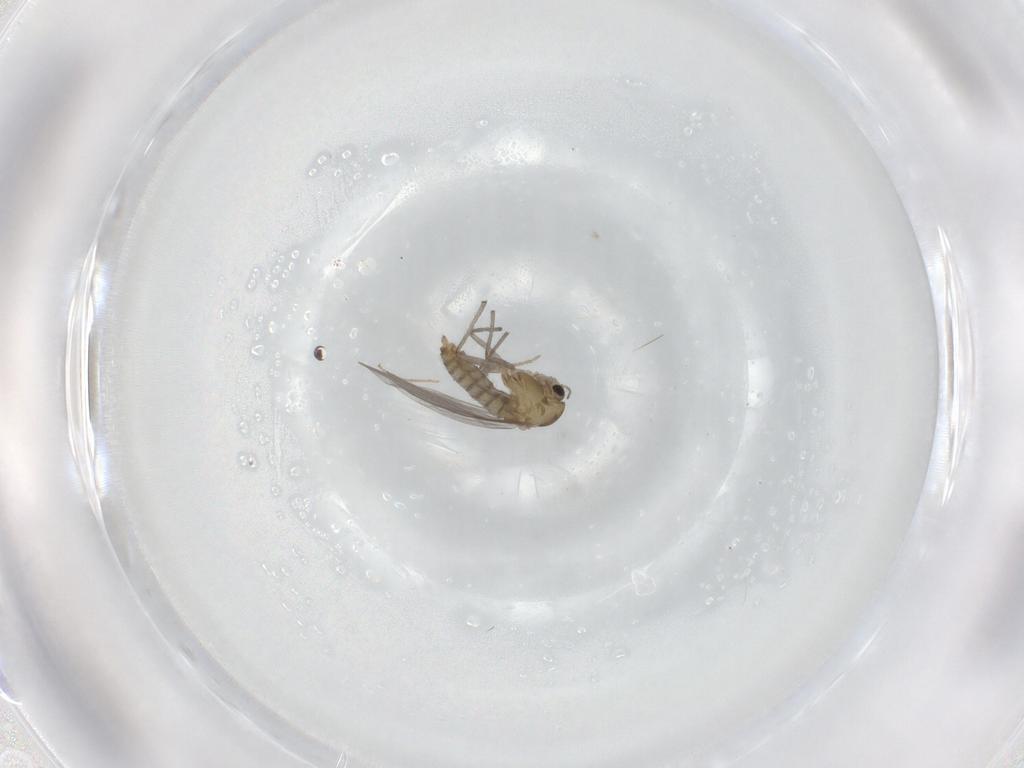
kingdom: Animalia
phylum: Arthropoda
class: Insecta
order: Diptera
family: Chironomidae
